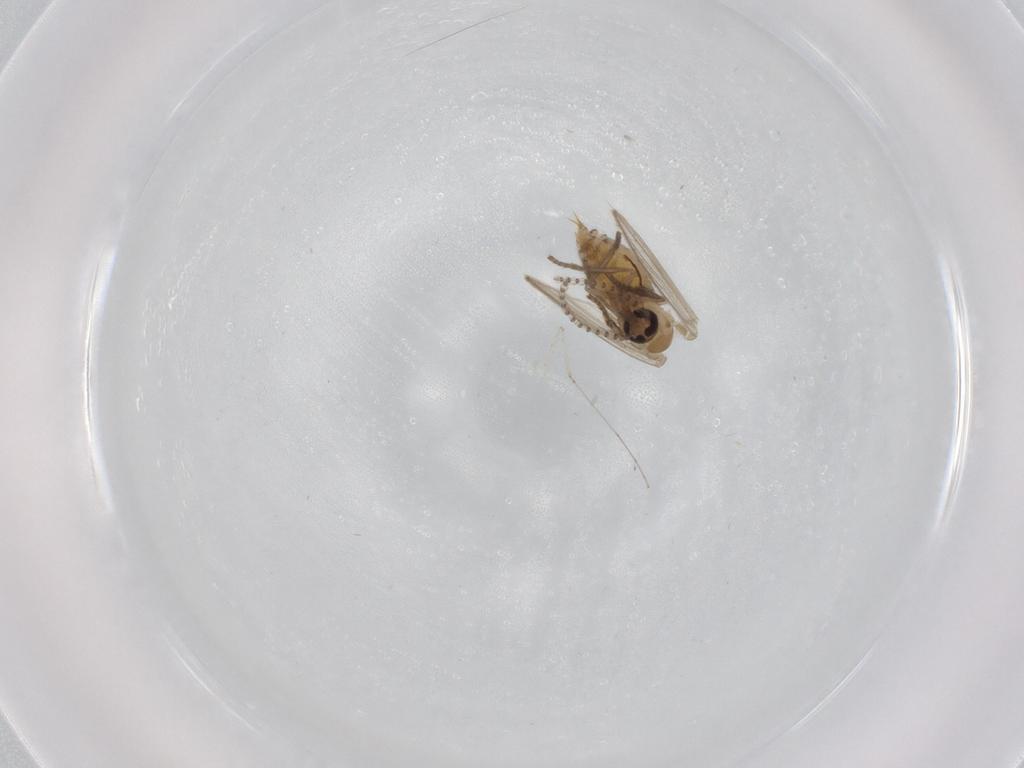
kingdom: Animalia
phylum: Arthropoda
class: Insecta
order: Diptera
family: Psychodidae
